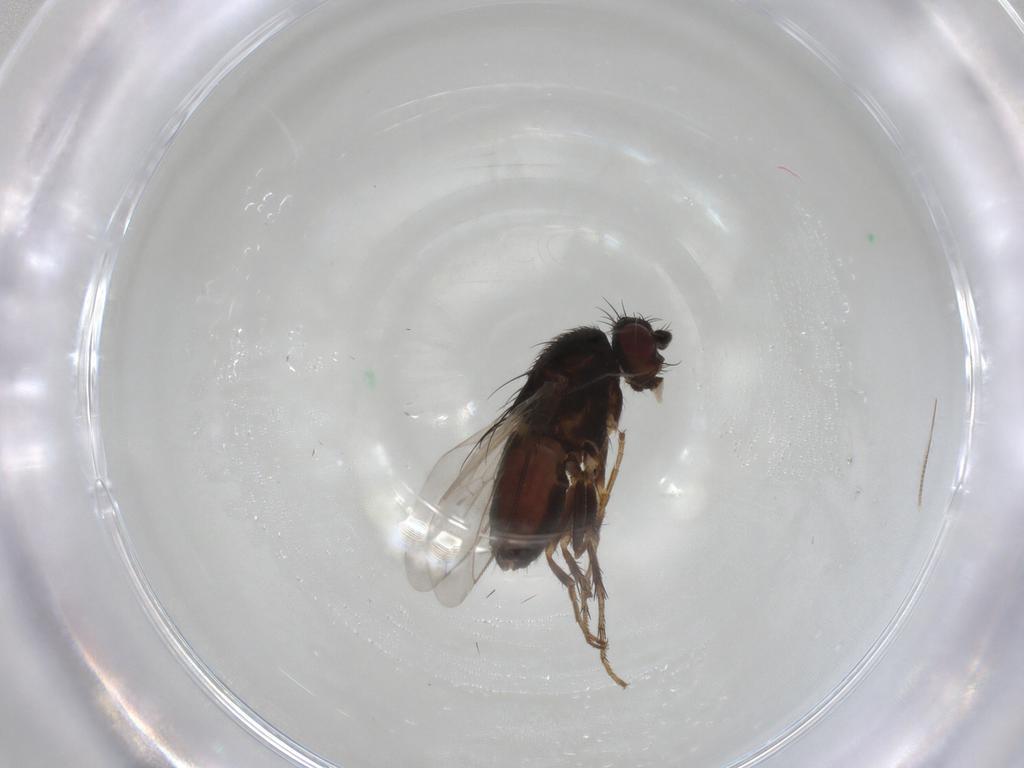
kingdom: Animalia
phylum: Arthropoda
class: Insecta
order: Diptera
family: Sphaeroceridae
